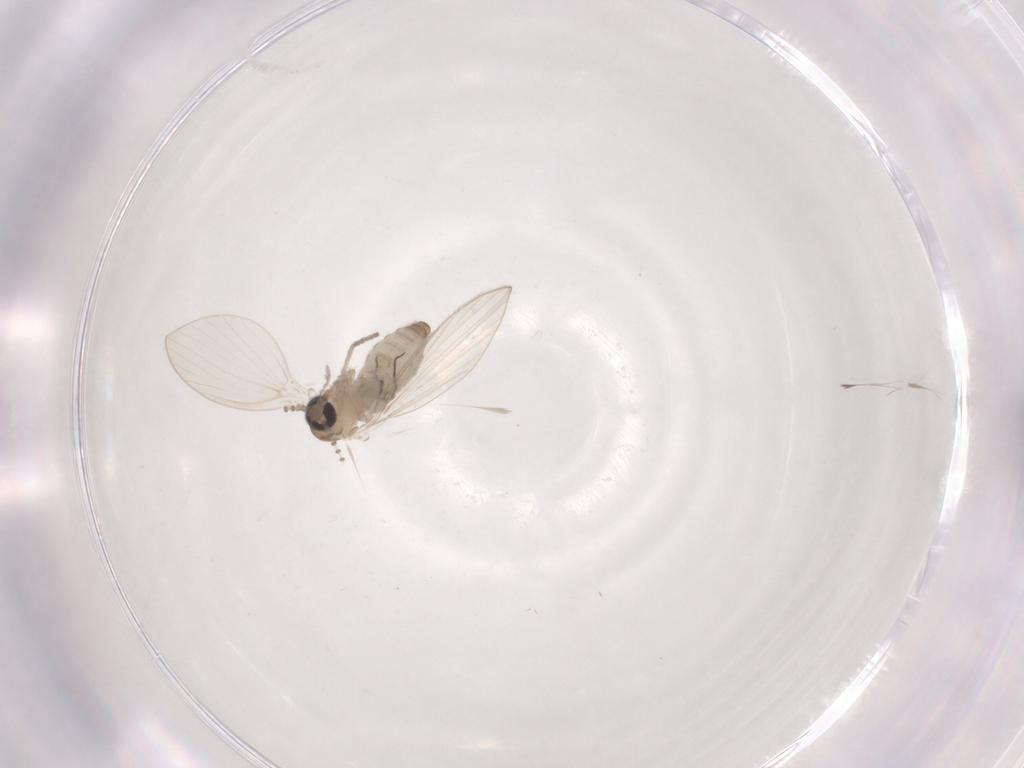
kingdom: Animalia
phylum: Arthropoda
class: Insecta
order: Diptera
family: Psychodidae
